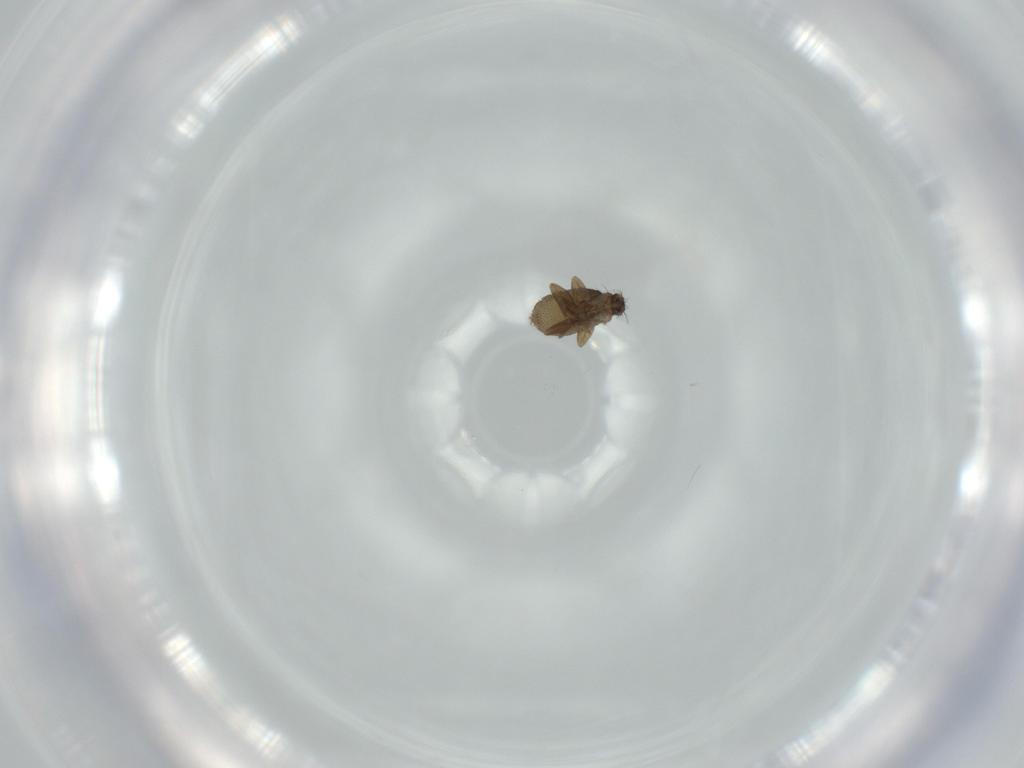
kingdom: Animalia
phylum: Arthropoda
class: Insecta
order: Diptera
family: Phoridae
